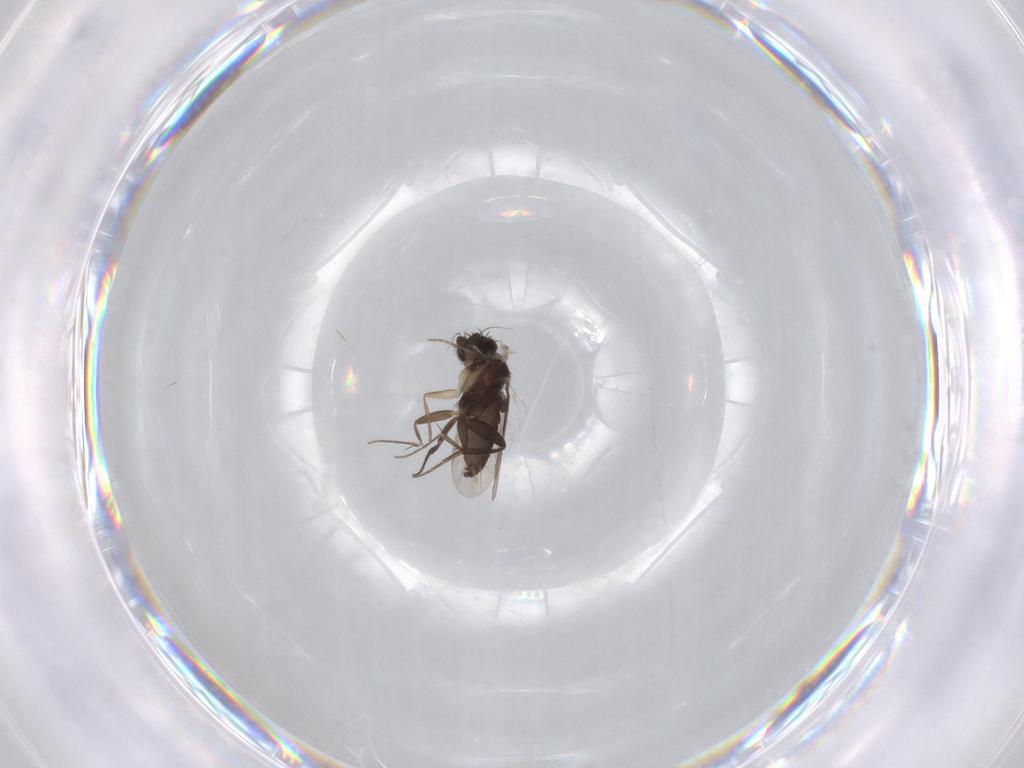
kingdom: Animalia
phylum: Arthropoda
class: Insecta
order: Diptera
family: Phoridae
